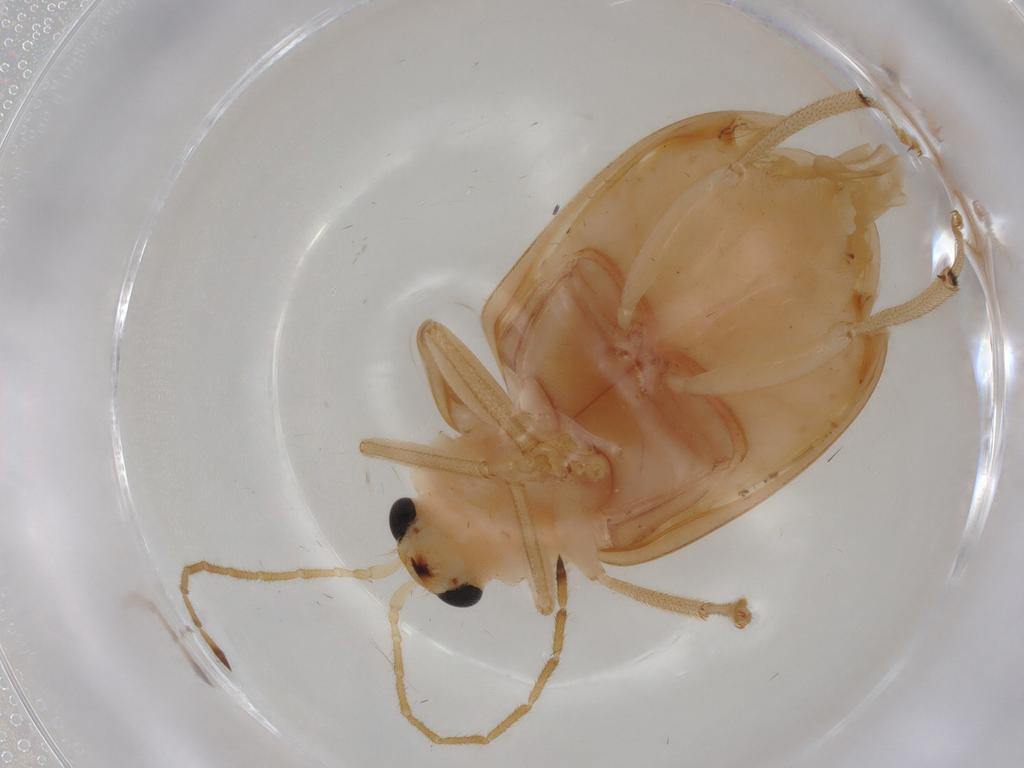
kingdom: Animalia
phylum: Arthropoda
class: Insecta
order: Coleoptera
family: Chrysomelidae
